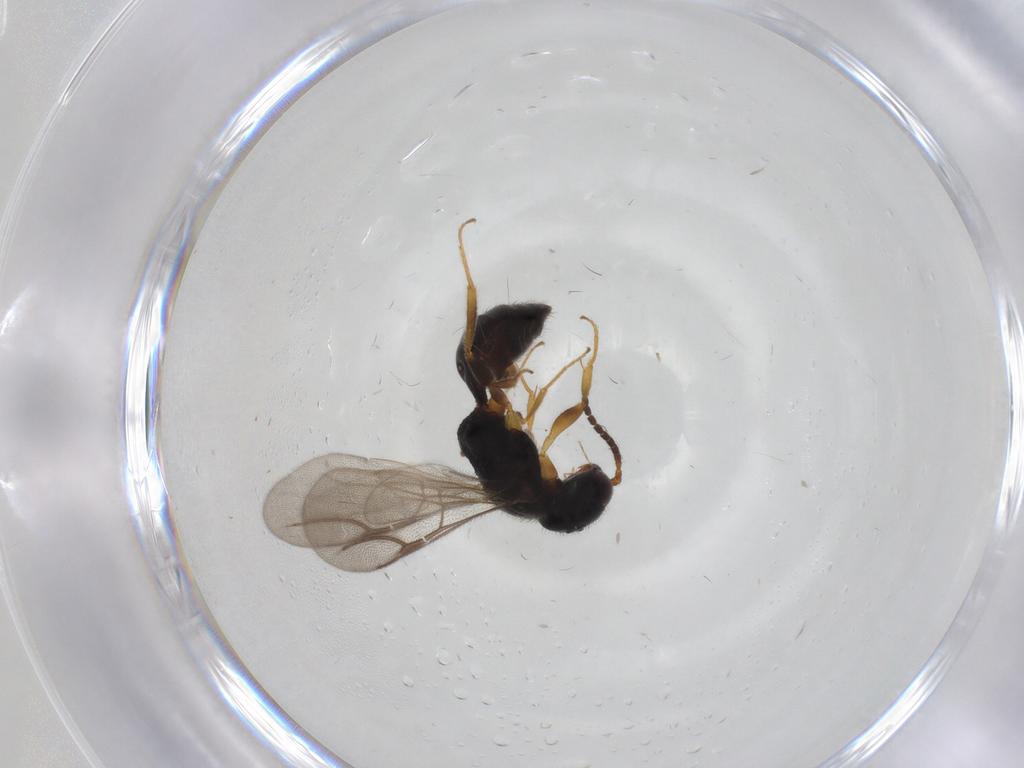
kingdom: Animalia
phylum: Arthropoda
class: Insecta
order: Hymenoptera
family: Bethylidae
